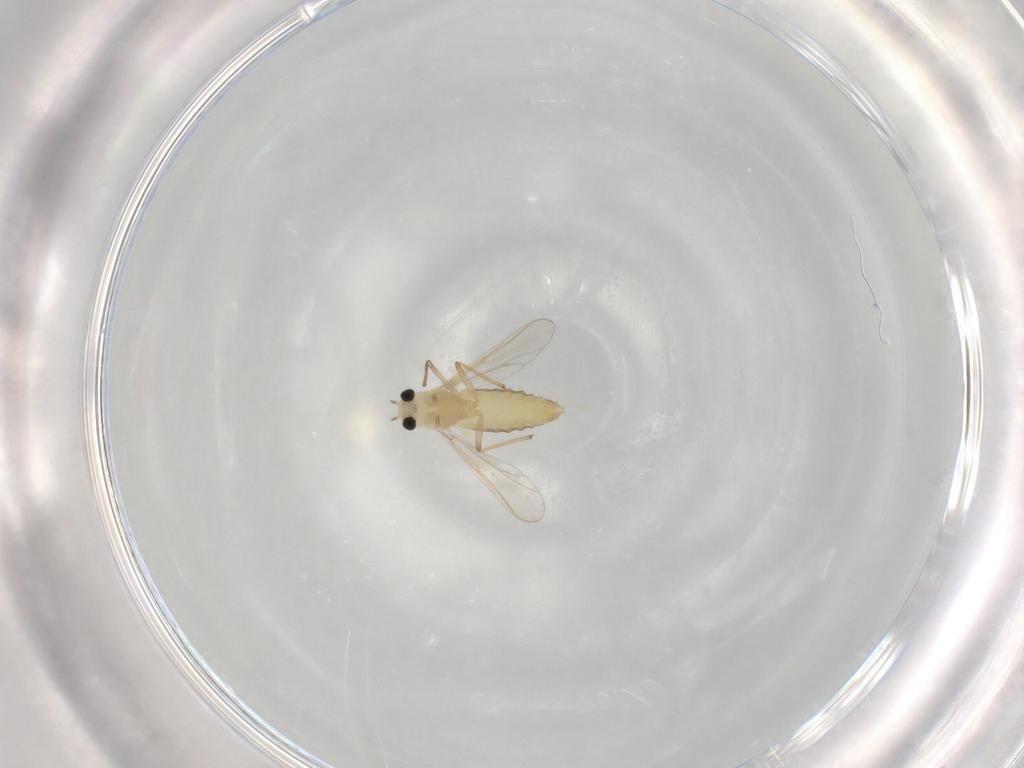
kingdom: Animalia
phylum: Arthropoda
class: Insecta
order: Diptera
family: Chironomidae
